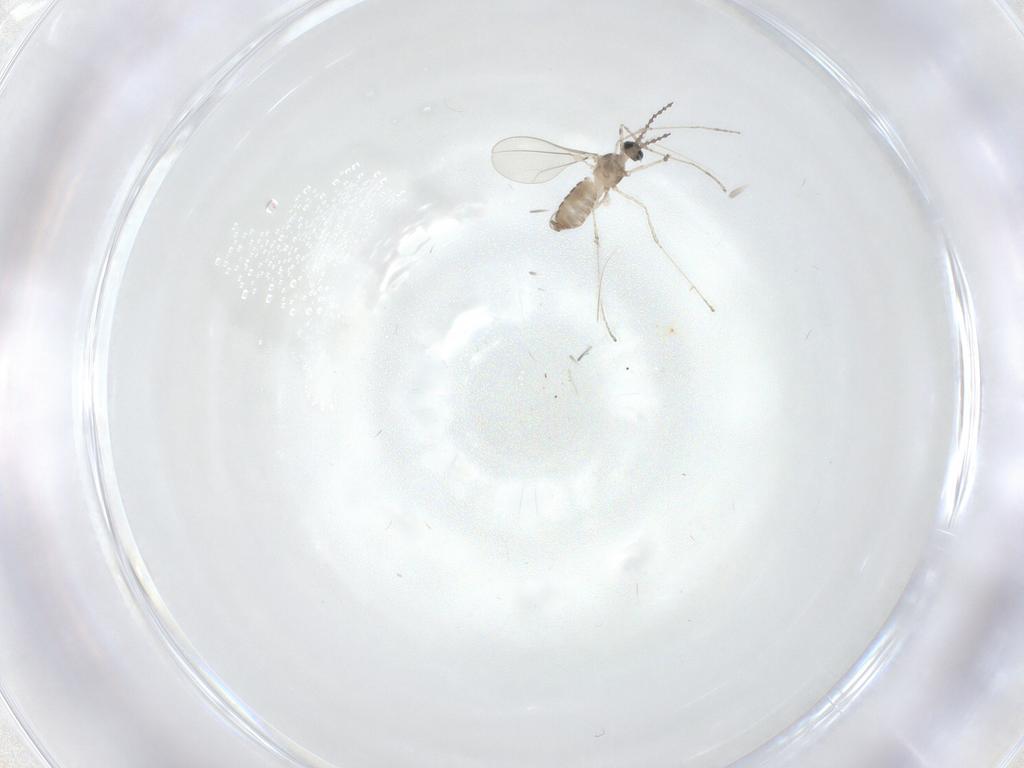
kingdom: Animalia
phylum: Arthropoda
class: Insecta
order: Diptera
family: Cecidomyiidae
